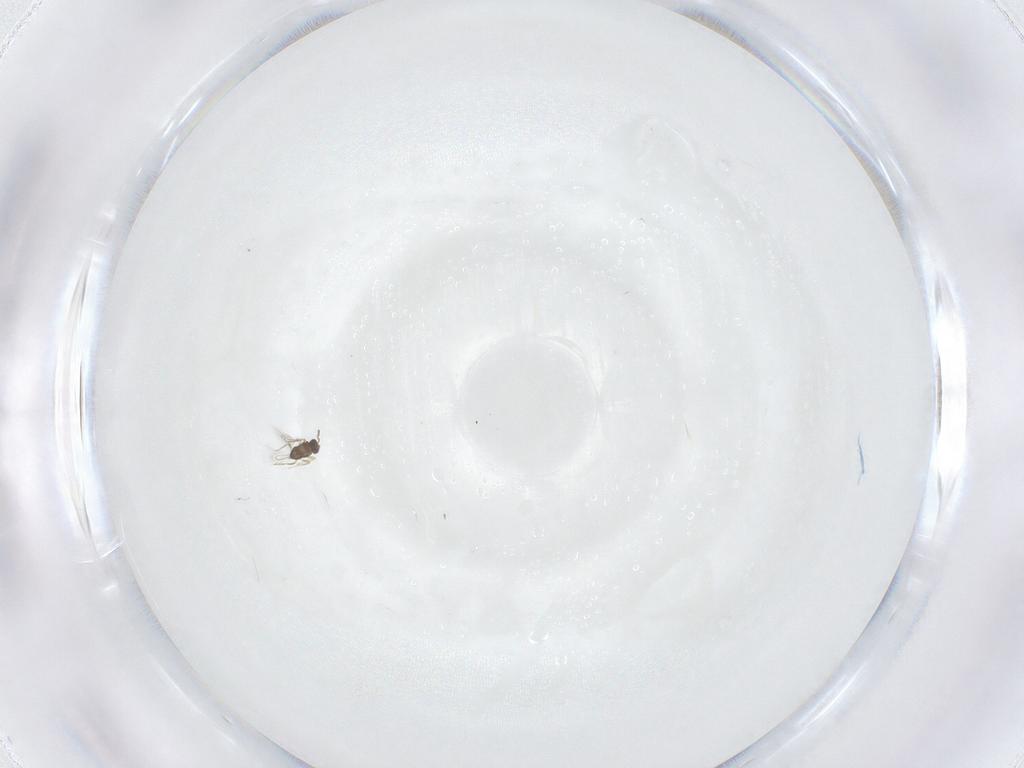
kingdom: Animalia
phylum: Arthropoda
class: Insecta
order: Hymenoptera
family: Mymaridae
